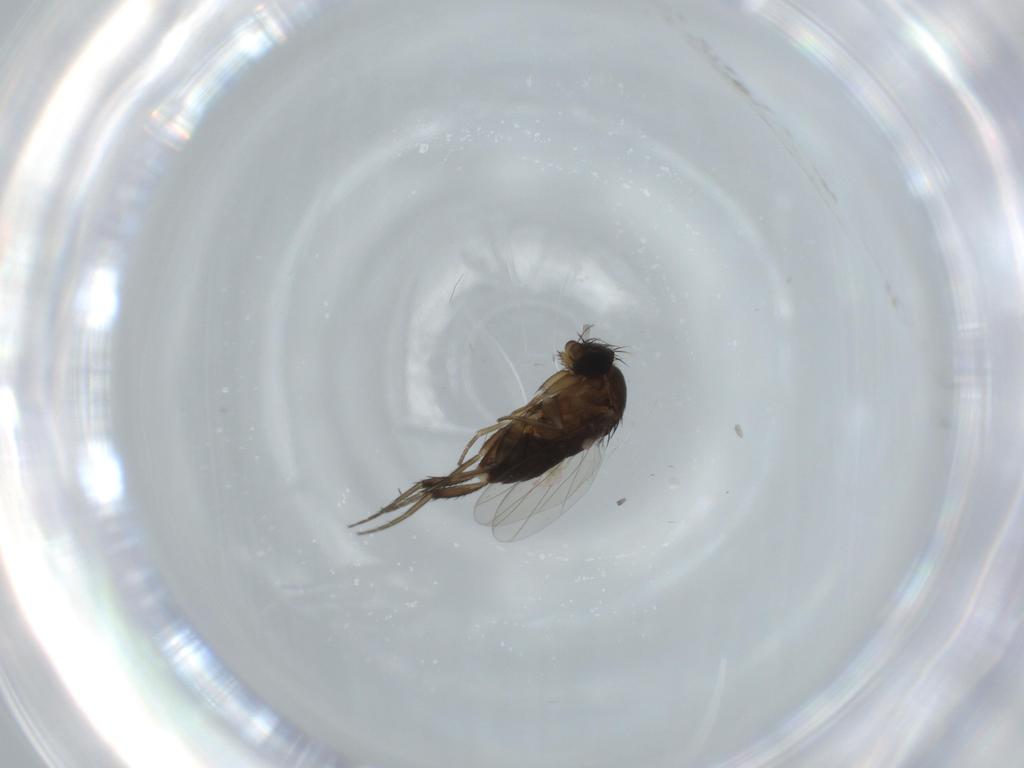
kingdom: Animalia
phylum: Arthropoda
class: Insecta
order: Diptera
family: Phoridae
